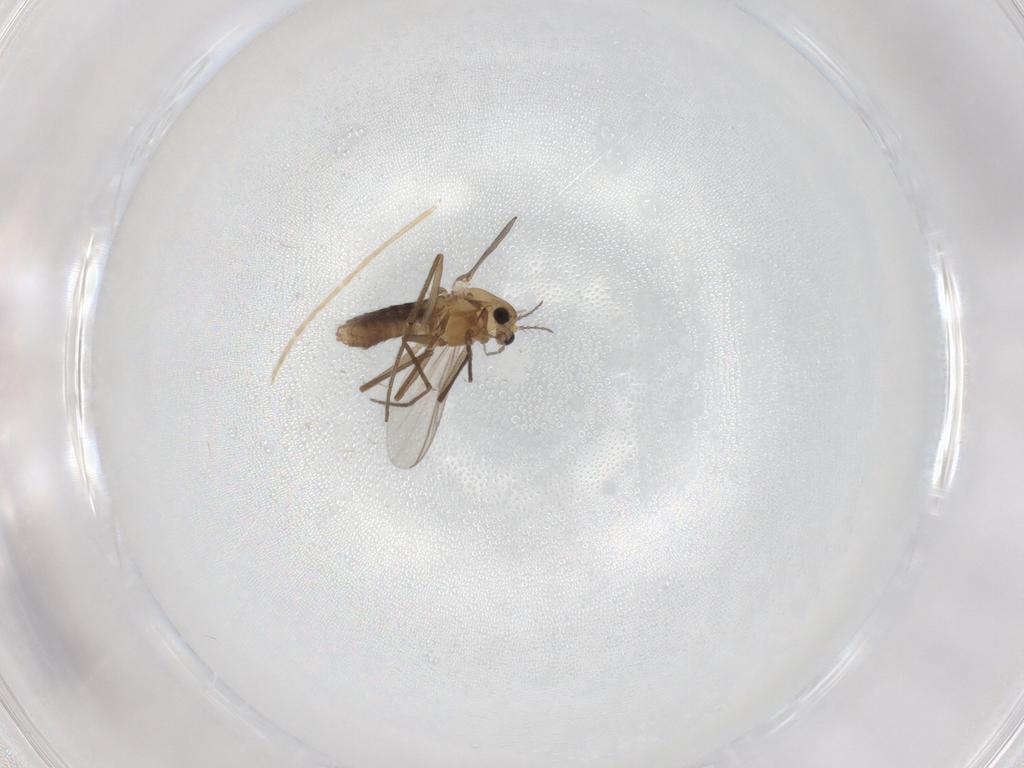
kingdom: Animalia
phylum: Arthropoda
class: Insecta
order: Diptera
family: Chironomidae
